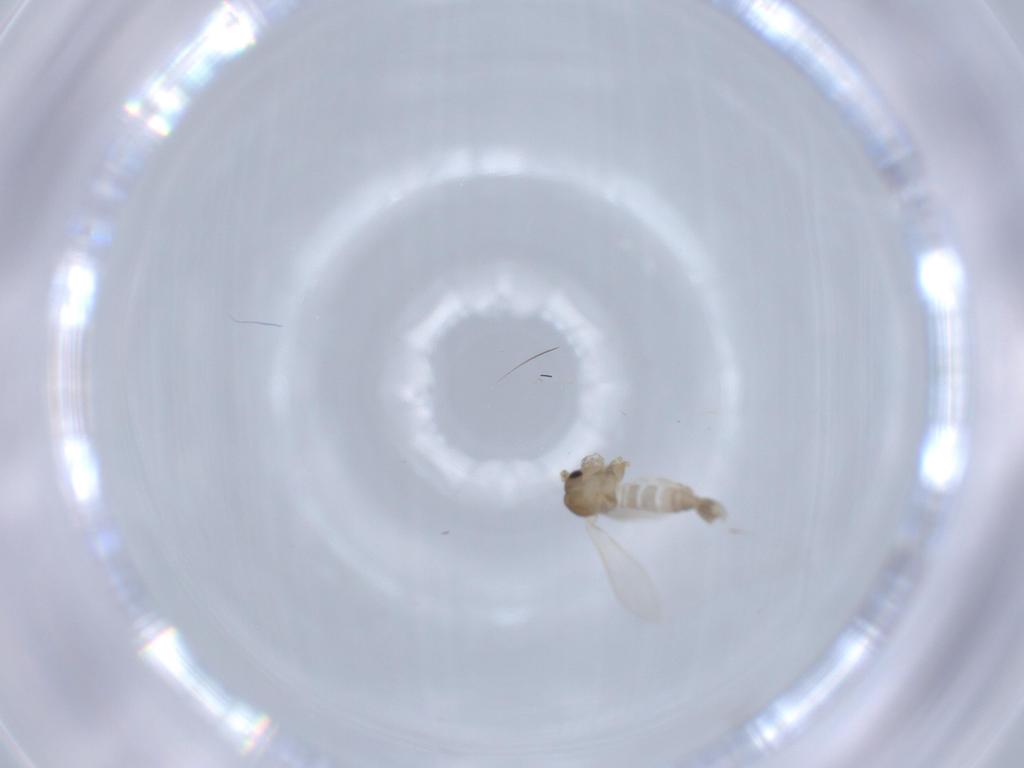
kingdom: Animalia
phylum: Arthropoda
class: Insecta
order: Diptera
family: Psychodidae
